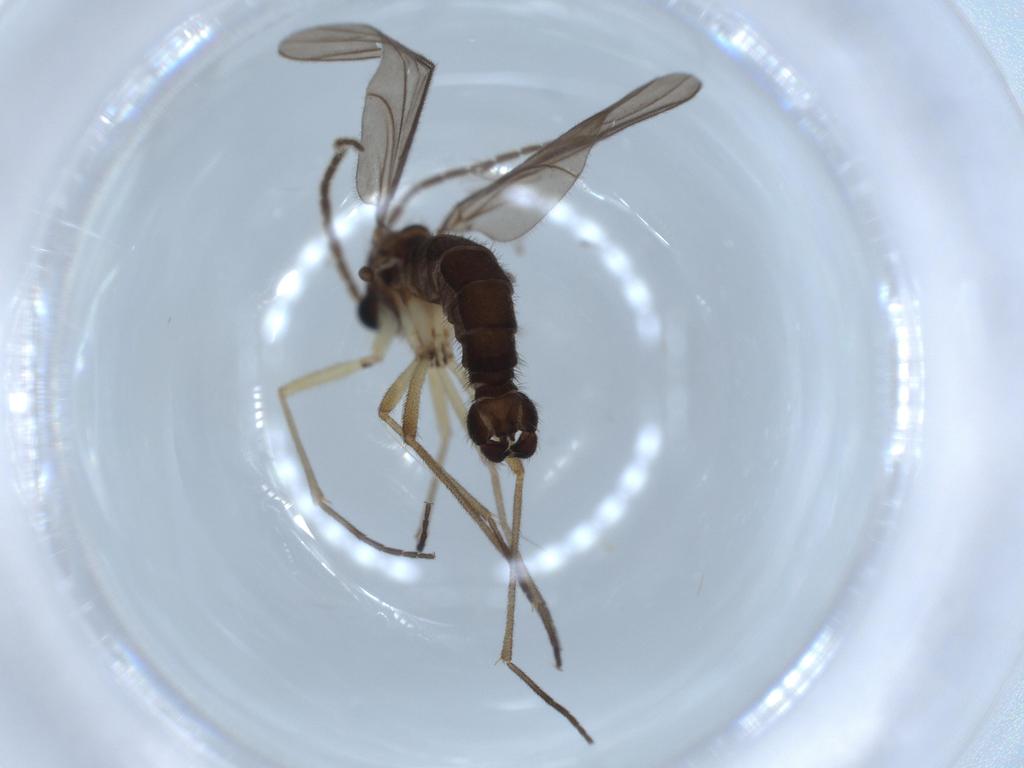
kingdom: Animalia
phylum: Arthropoda
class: Insecta
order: Diptera
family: Sciaridae
